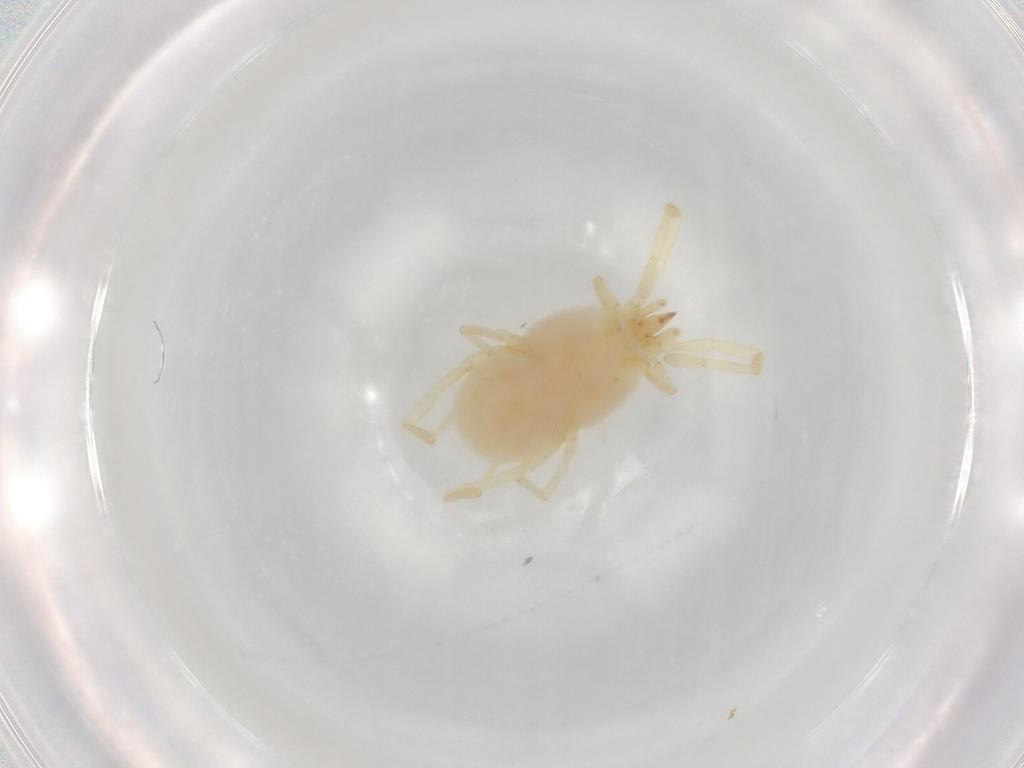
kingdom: Animalia
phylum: Arthropoda
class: Arachnida
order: Trombidiformes
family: Erythraeidae
